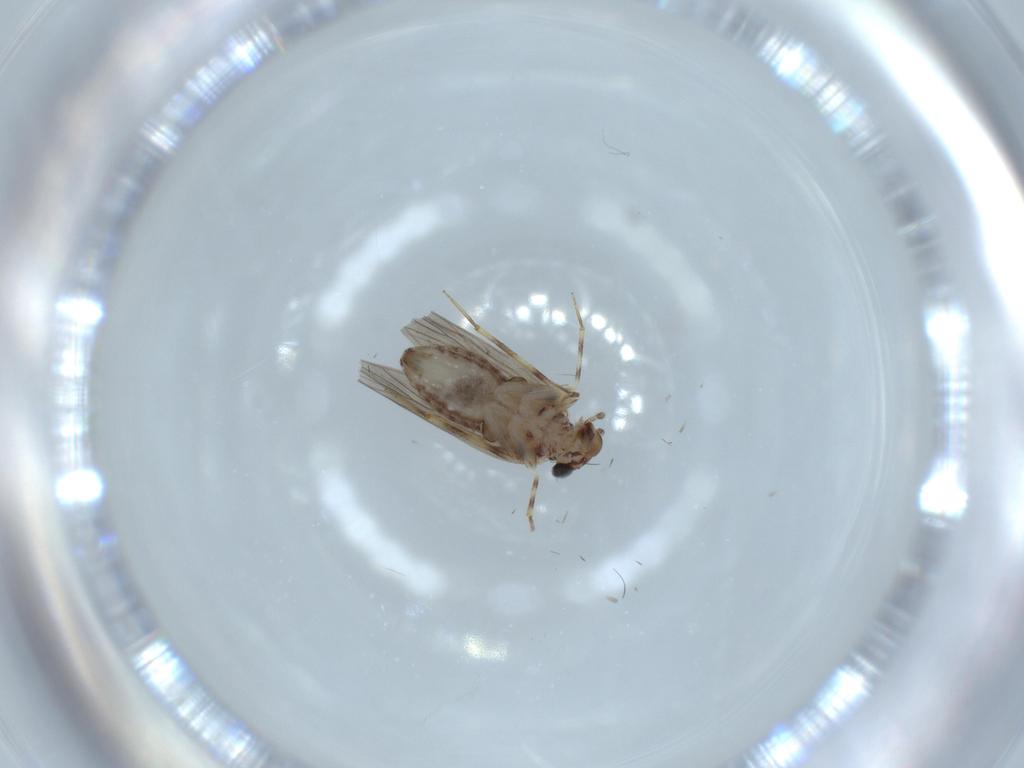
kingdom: Animalia
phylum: Arthropoda
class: Insecta
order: Psocodea
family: Lepidopsocidae
